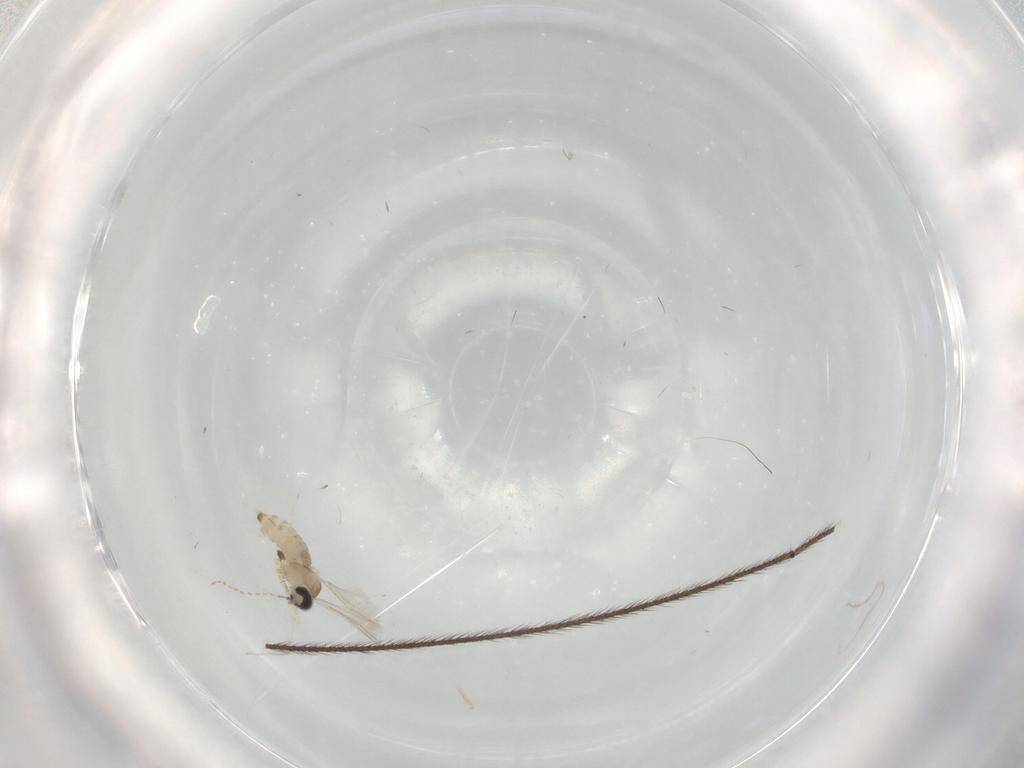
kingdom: Animalia
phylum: Arthropoda
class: Insecta
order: Diptera
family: Cecidomyiidae
